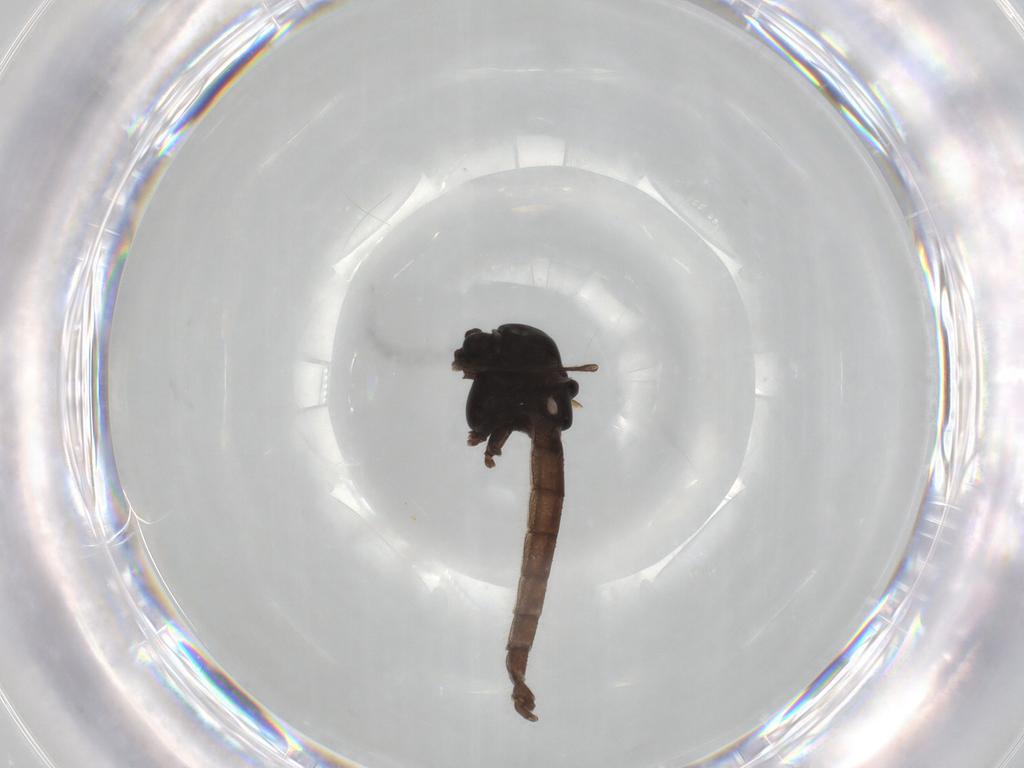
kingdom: Animalia
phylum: Arthropoda
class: Insecta
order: Diptera
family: Chironomidae
